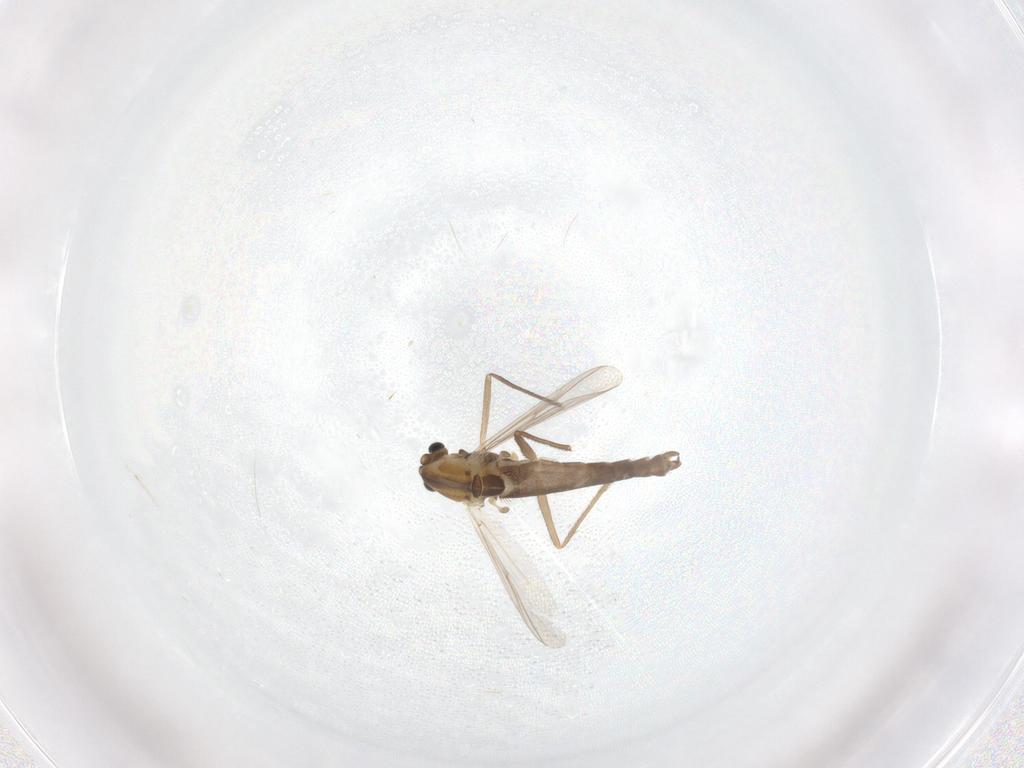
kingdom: Animalia
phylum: Arthropoda
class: Insecta
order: Diptera
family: Chironomidae
